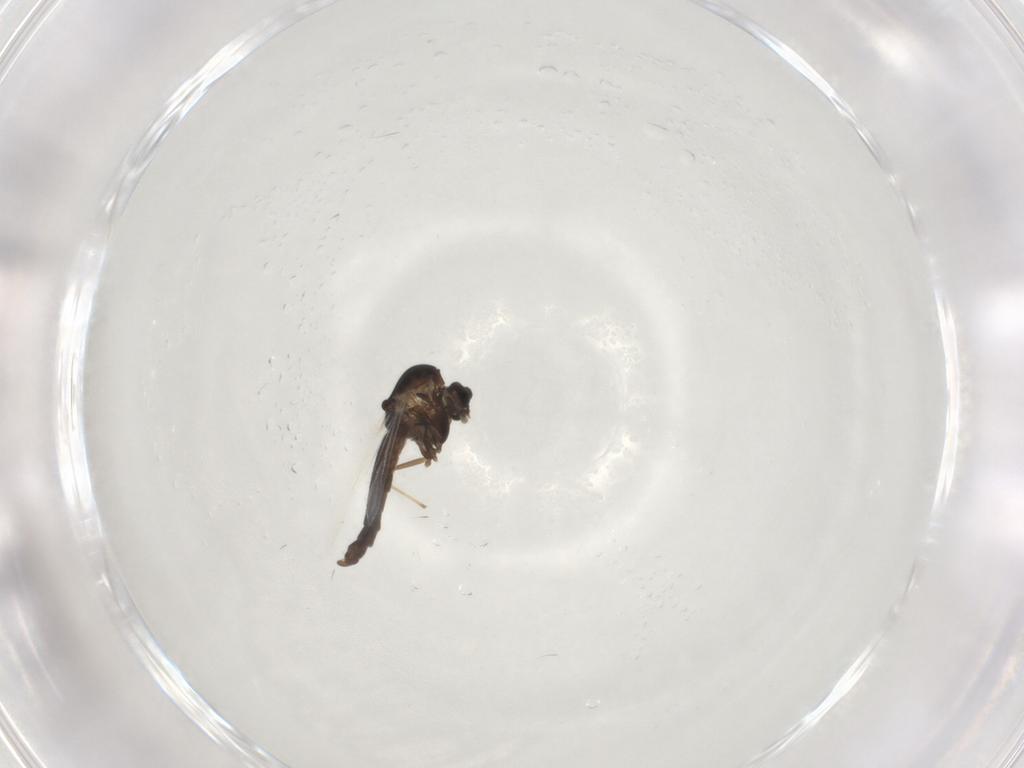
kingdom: Animalia
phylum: Arthropoda
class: Insecta
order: Diptera
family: Chironomidae
